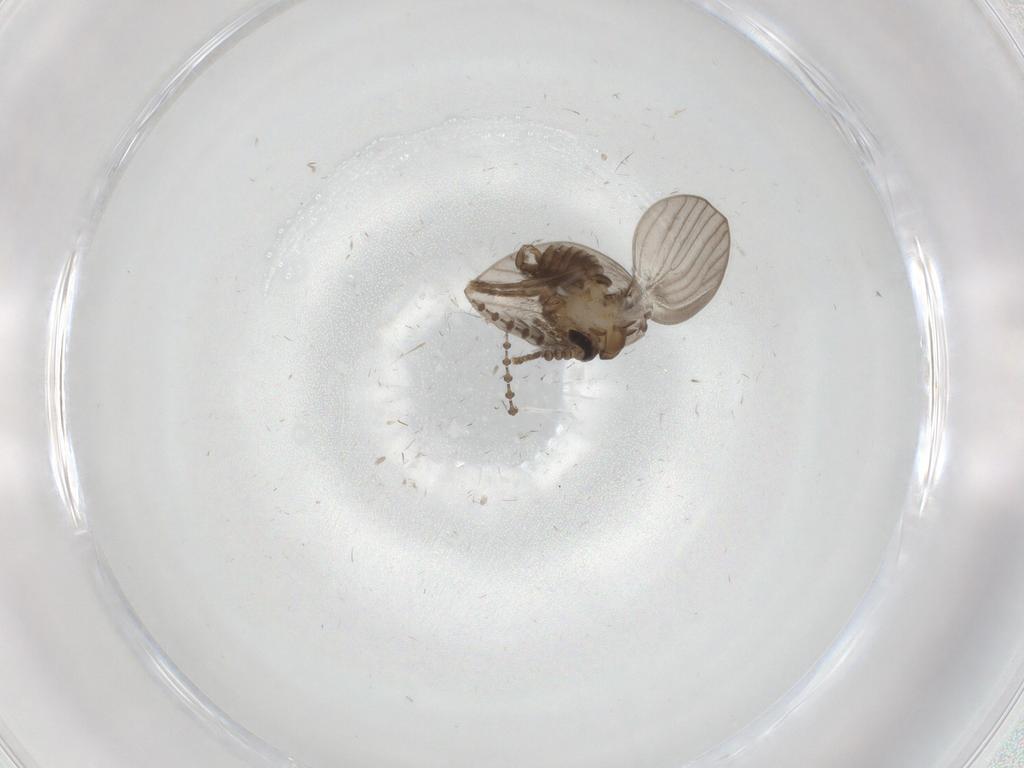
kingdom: Animalia
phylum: Arthropoda
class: Insecta
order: Diptera
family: Psychodidae
